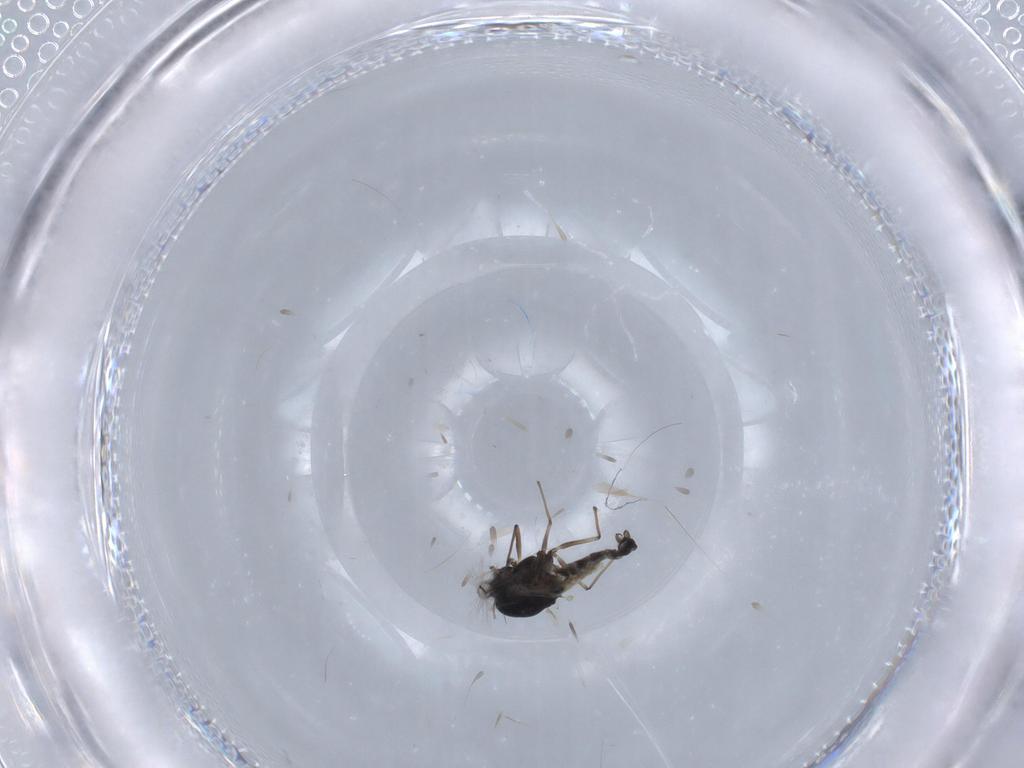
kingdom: Animalia
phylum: Arthropoda
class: Insecta
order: Diptera
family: Chironomidae
